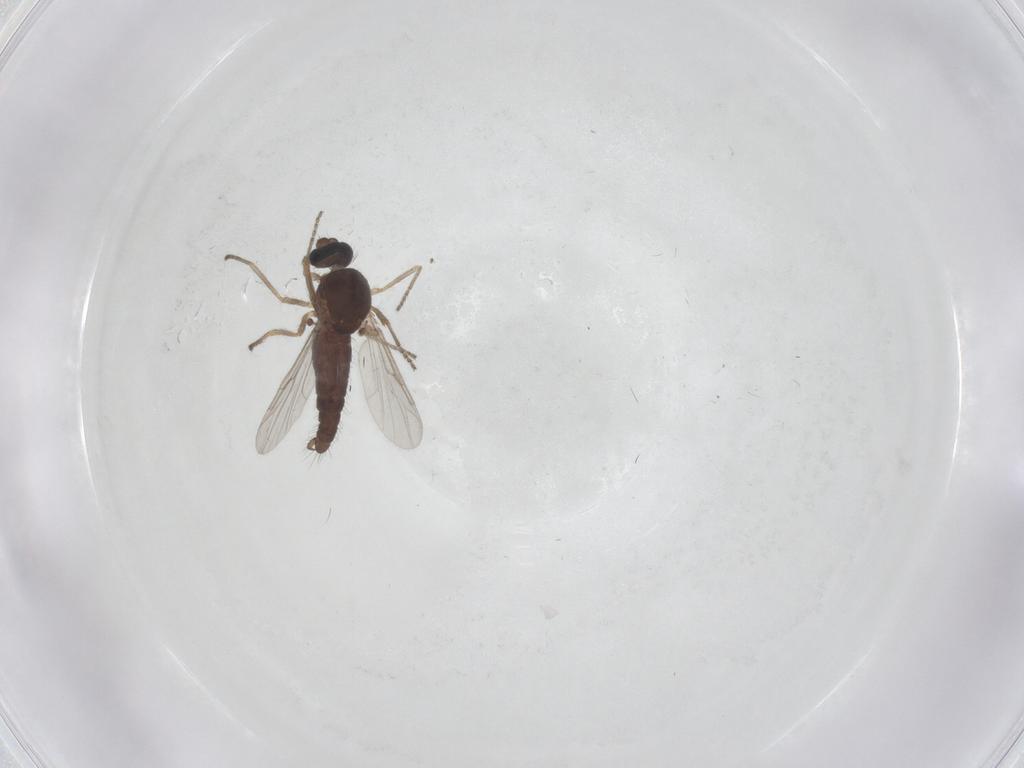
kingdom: Animalia
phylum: Arthropoda
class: Insecta
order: Diptera
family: Ceratopogonidae
